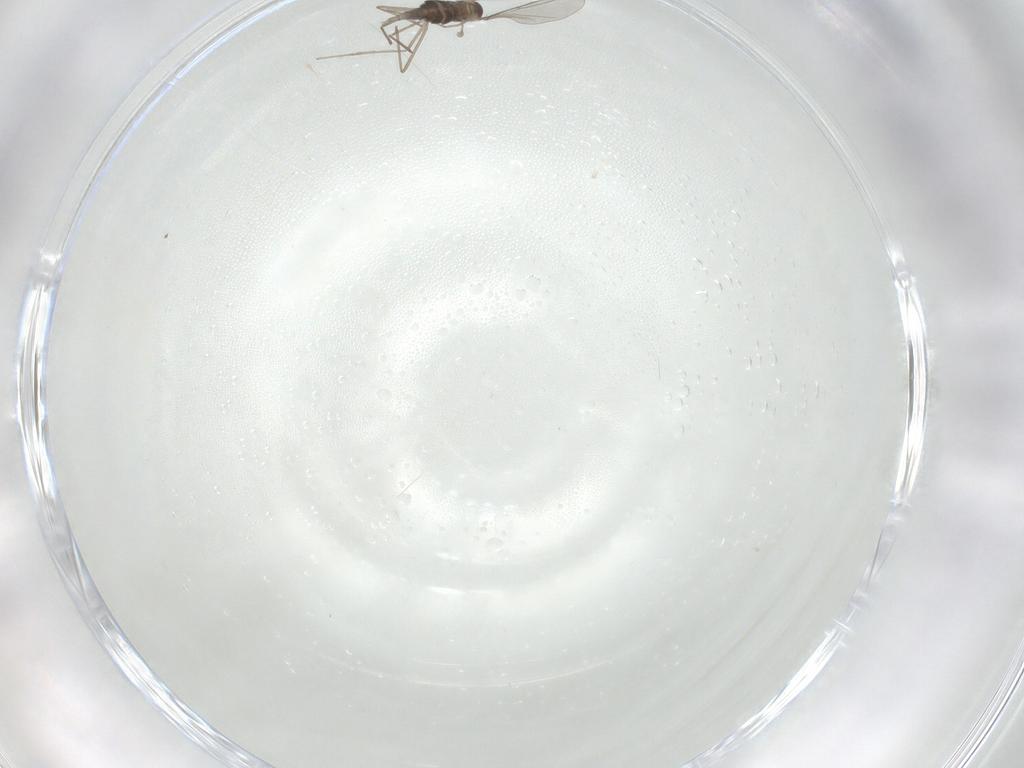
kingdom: Animalia
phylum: Arthropoda
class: Insecta
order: Diptera
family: Cecidomyiidae
